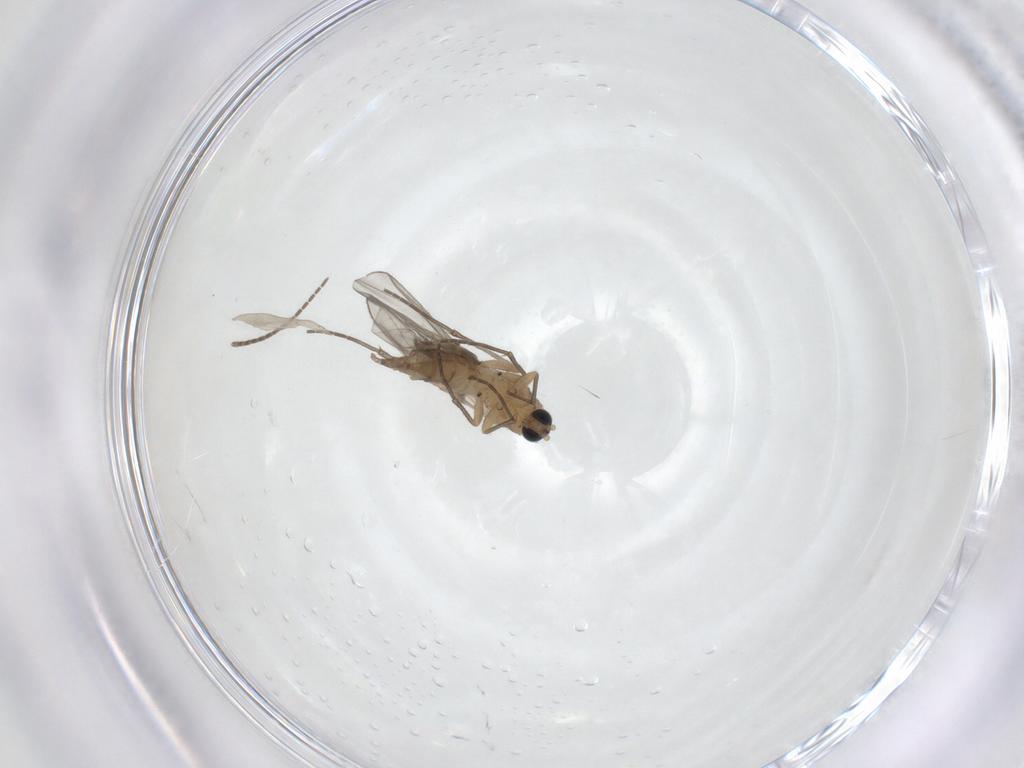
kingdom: Animalia
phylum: Arthropoda
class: Insecta
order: Diptera
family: Sciaridae
